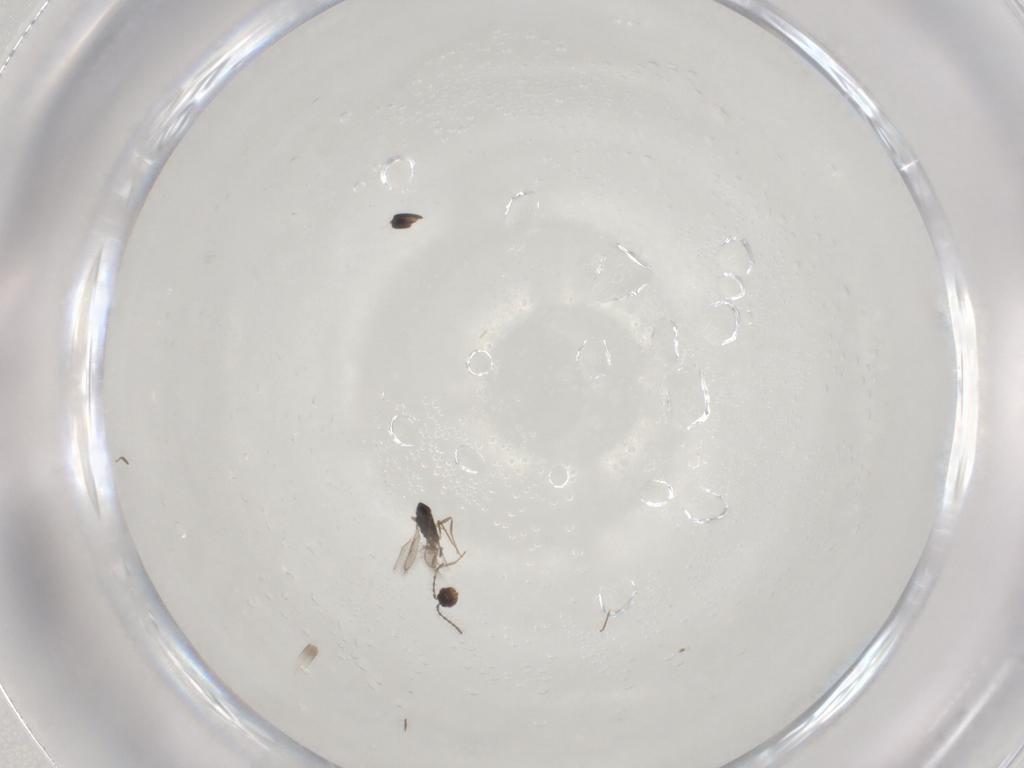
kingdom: Animalia
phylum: Arthropoda
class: Insecta
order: Hymenoptera
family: Pteromalidae
